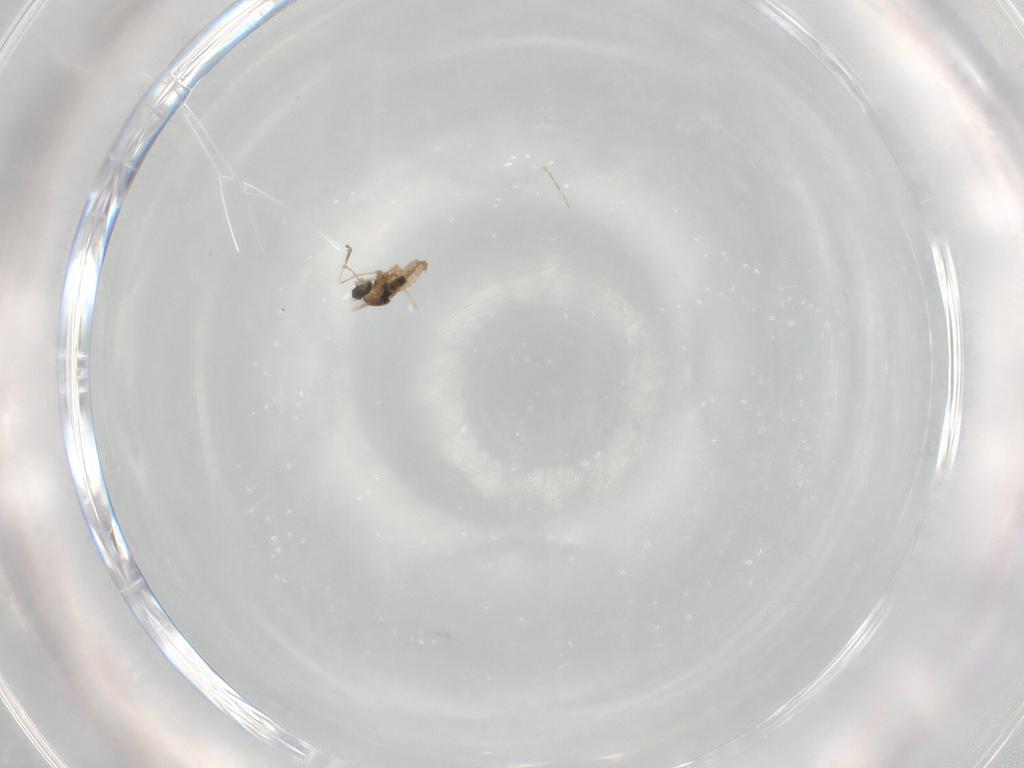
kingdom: Animalia
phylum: Arthropoda
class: Insecta
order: Diptera
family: Cecidomyiidae
